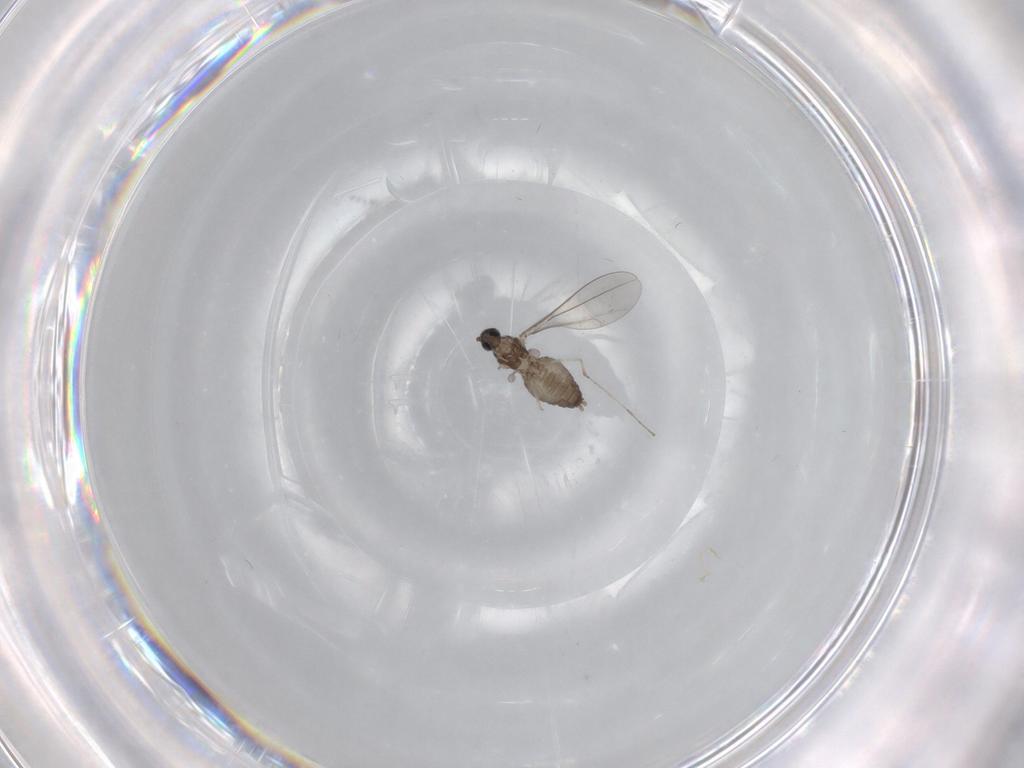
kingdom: Animalia
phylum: Arthropoda
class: Insecta
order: Diptera
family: Cecidomyiidae
